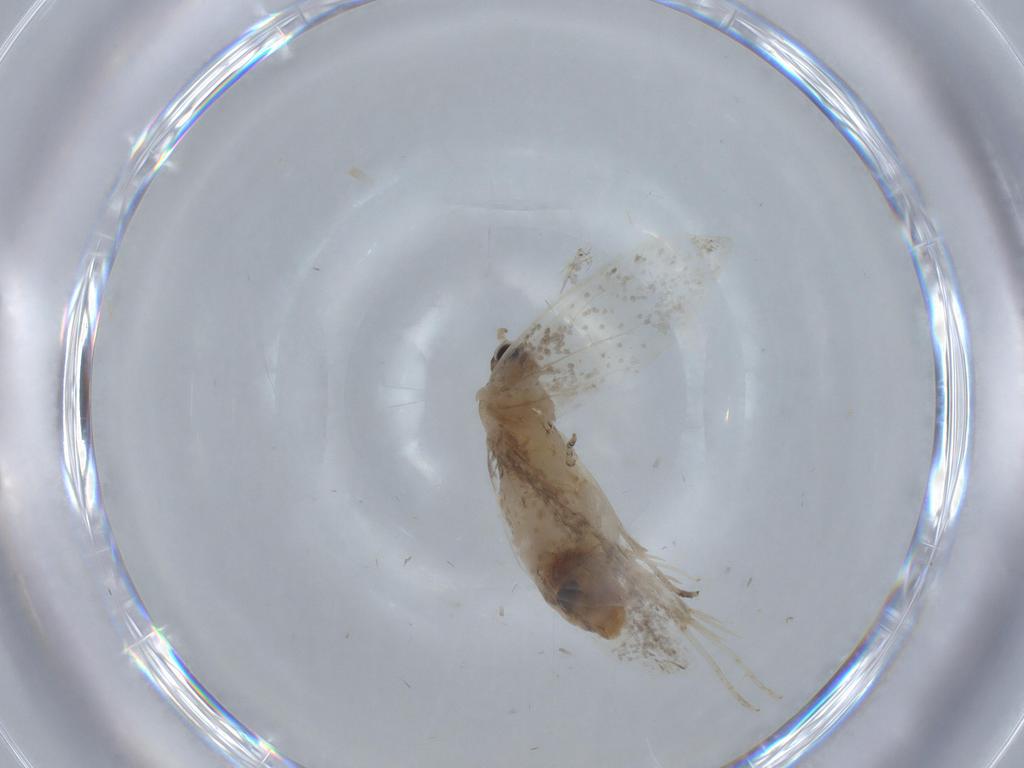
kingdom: Animalia
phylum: Arthropoda
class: Insecta
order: Lepidoptera
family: Tineidae
